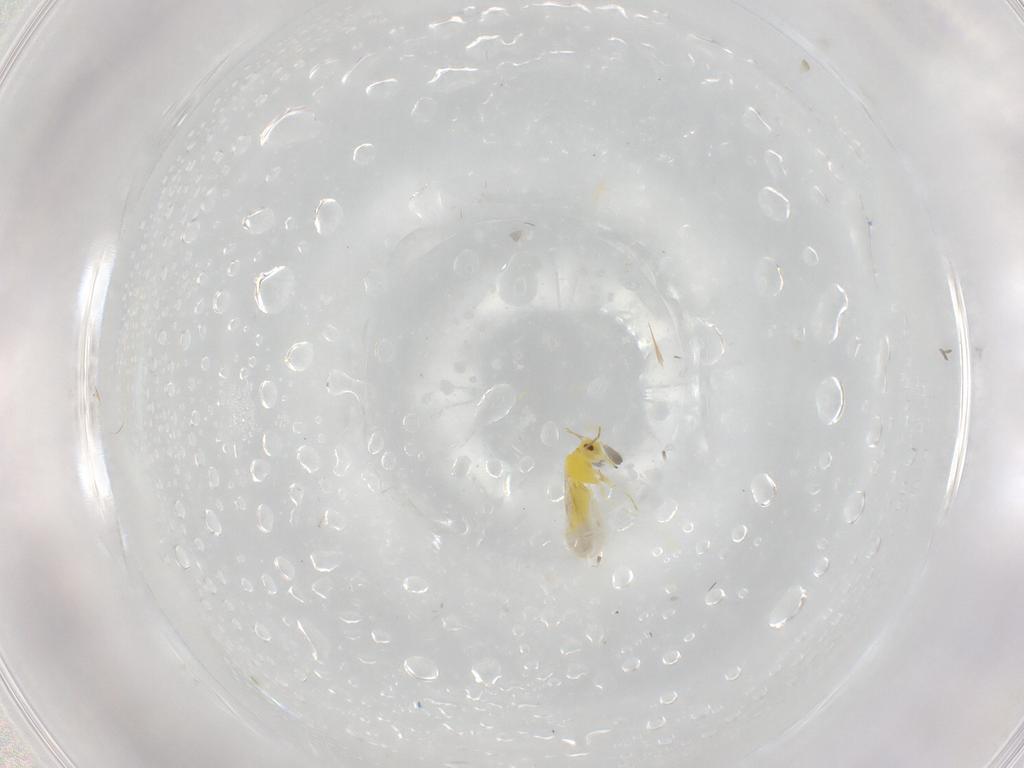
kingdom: Animalia
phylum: Arthropoda
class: Insecta
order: Hemiptera
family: Aleyrodidae
